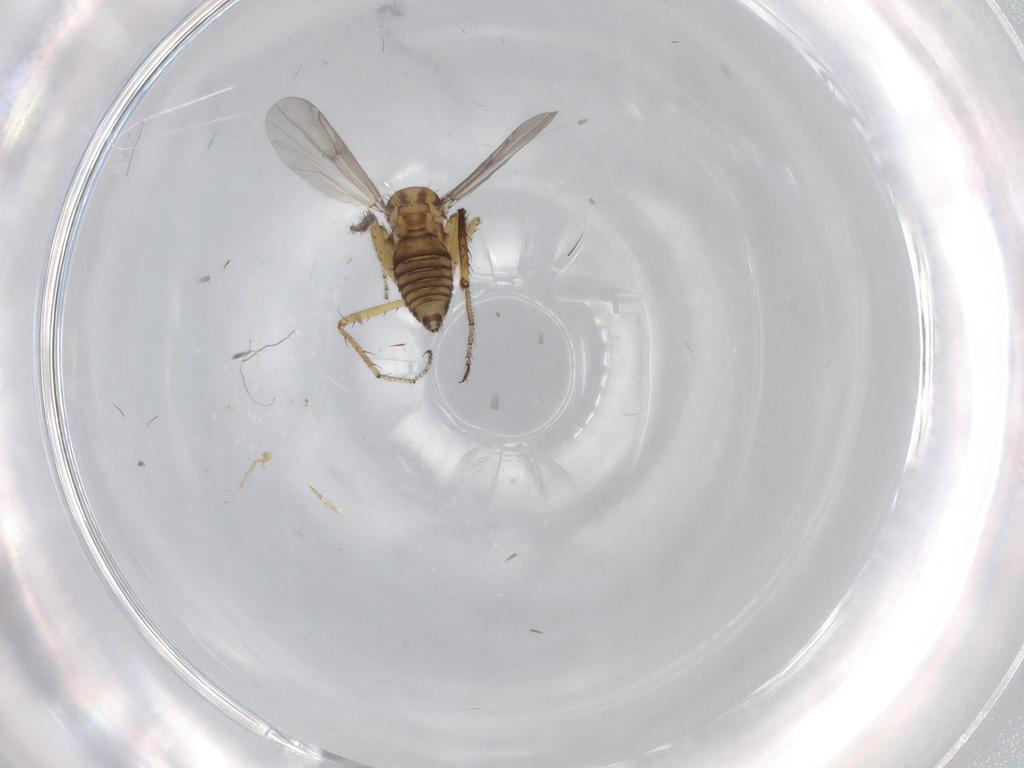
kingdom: Animalia
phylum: Arthropoda
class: Insecta
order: Diptera
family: Ceratopogonidae
